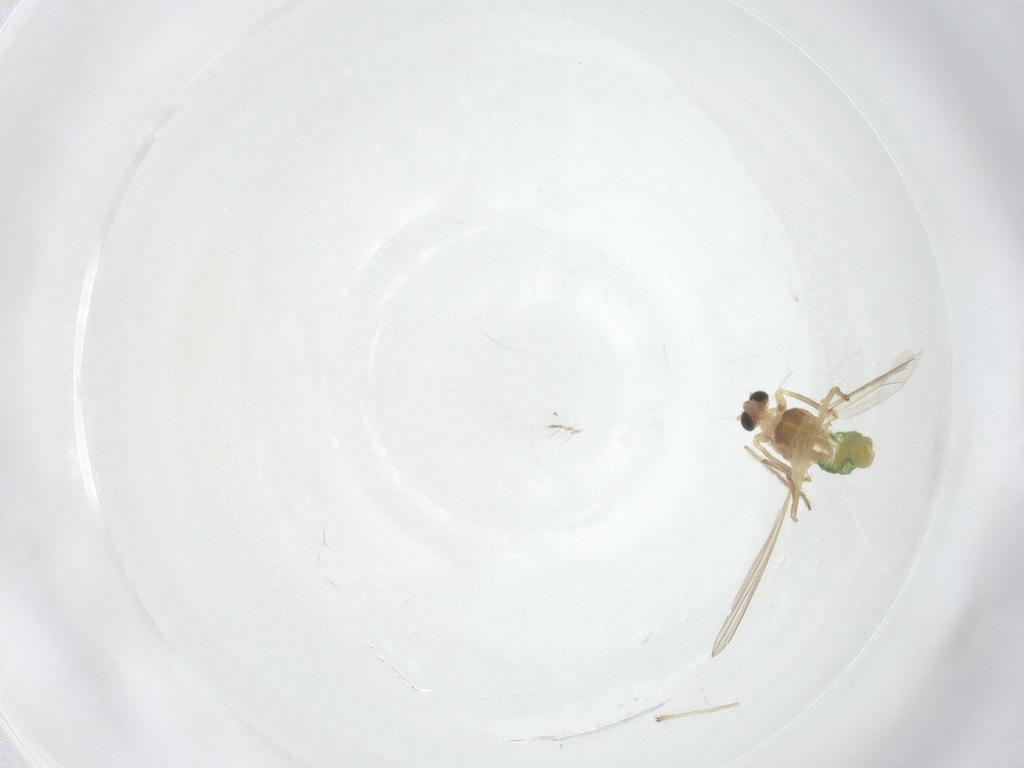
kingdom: Animalia
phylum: Arthropoda
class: Insecta
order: Diptera
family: Chironomidae
